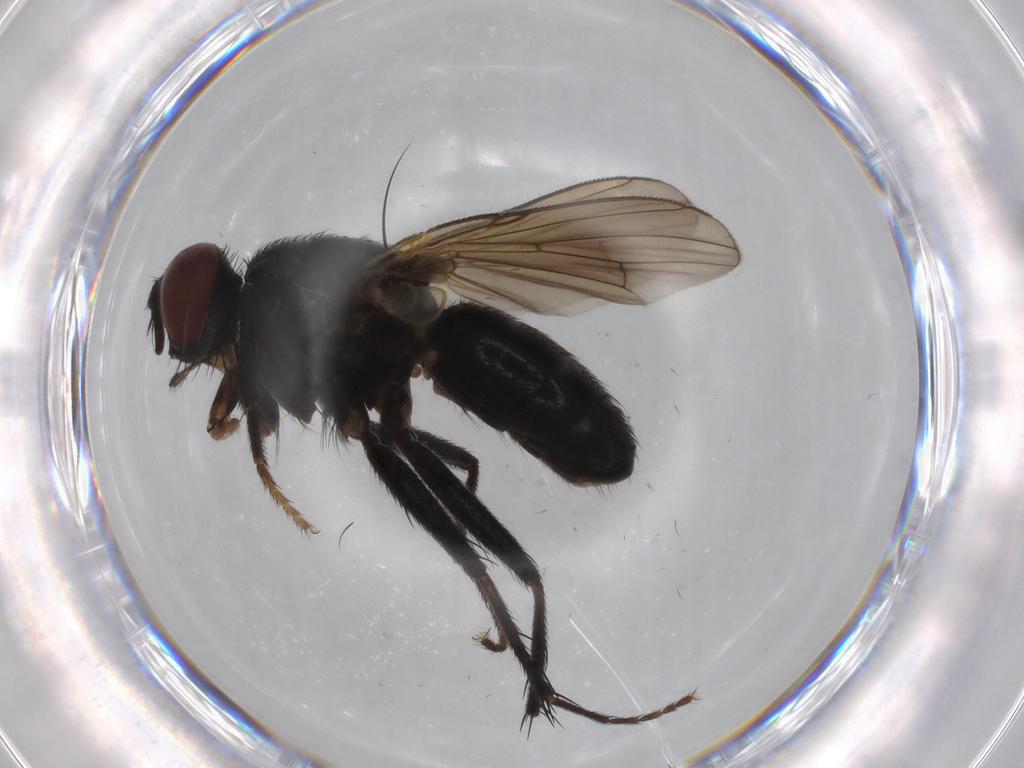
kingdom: Animalia
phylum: Arthropoda
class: Insecta
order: Diptera
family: Muscidae
